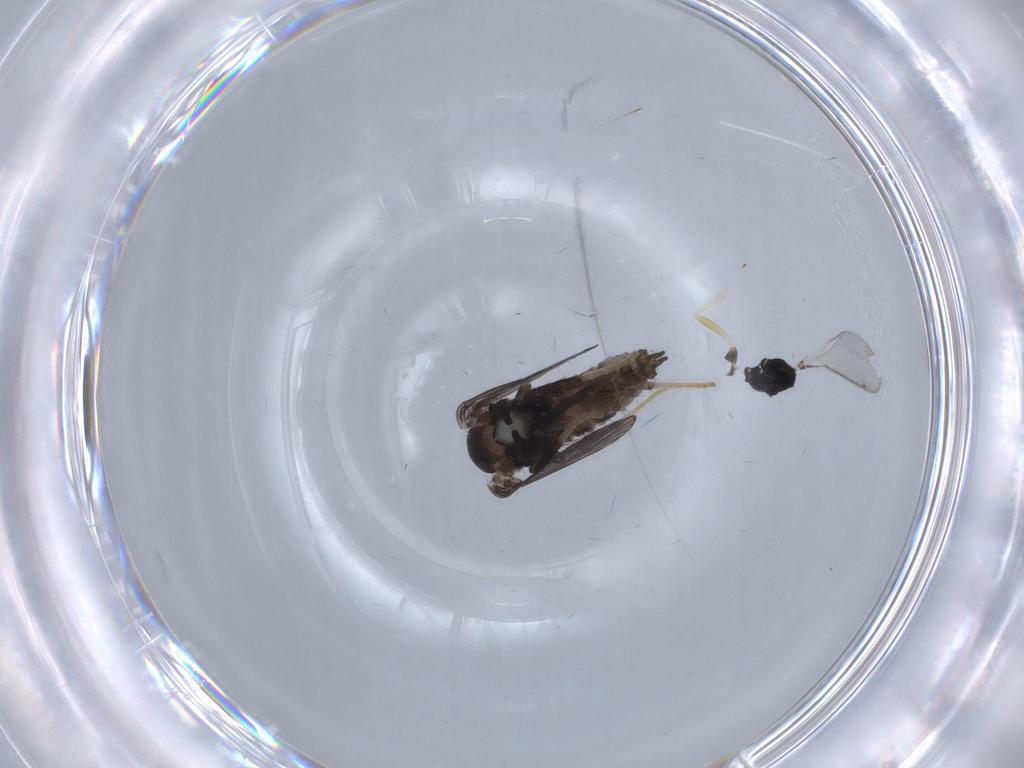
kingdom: Animalia
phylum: Arthropoda
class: Insecta
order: Diptera
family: Psychodidae
